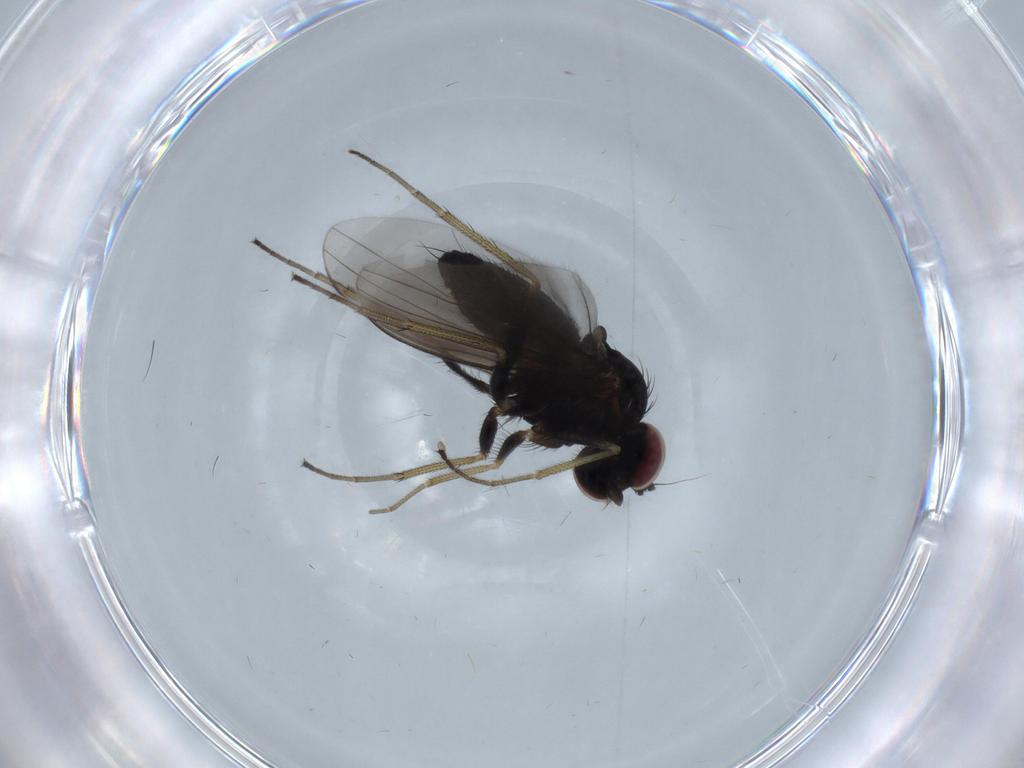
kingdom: Animalia
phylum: Arthropoda
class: Insecta
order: Diptera
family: Dolichopodidae
